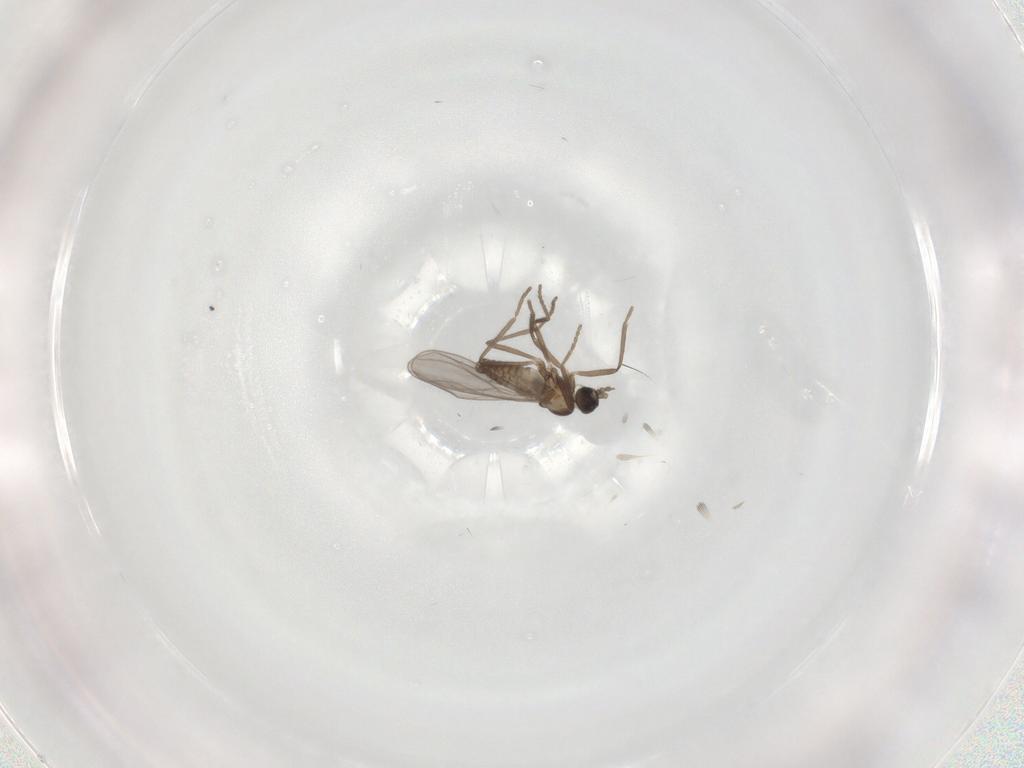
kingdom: Animalia
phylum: Arthropoda
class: Insecta
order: Diptera
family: Cecidomyiidae
